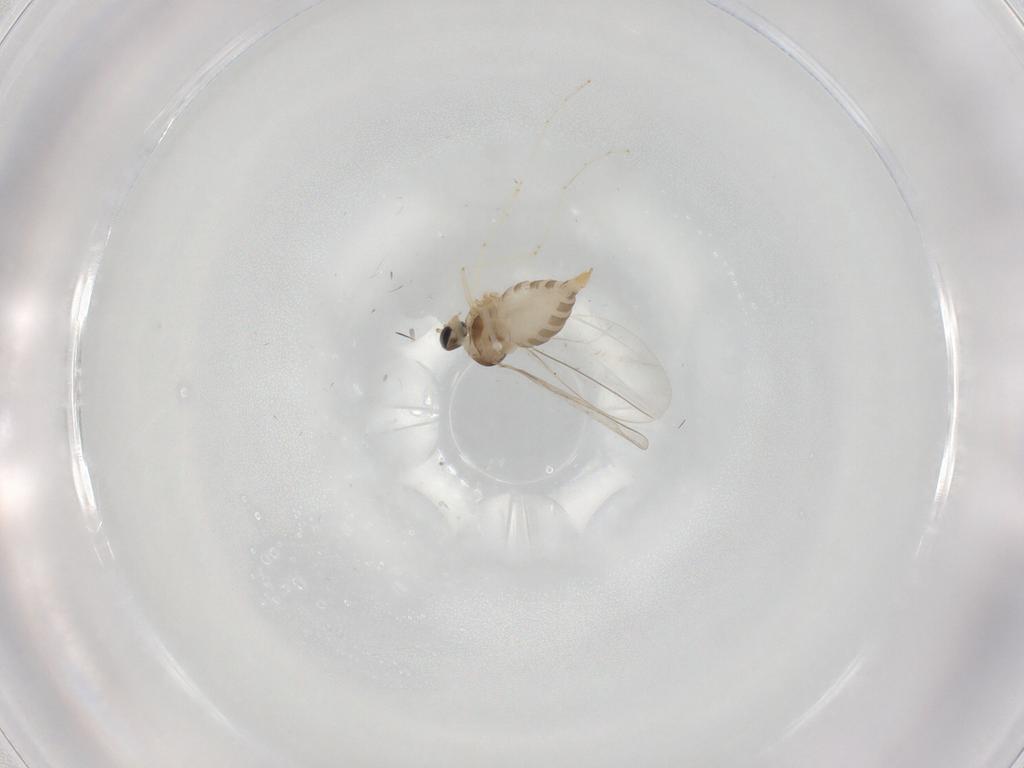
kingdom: Animalia
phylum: Arthropoda
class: Insecta
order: Diptera
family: Cecidomyiidae
